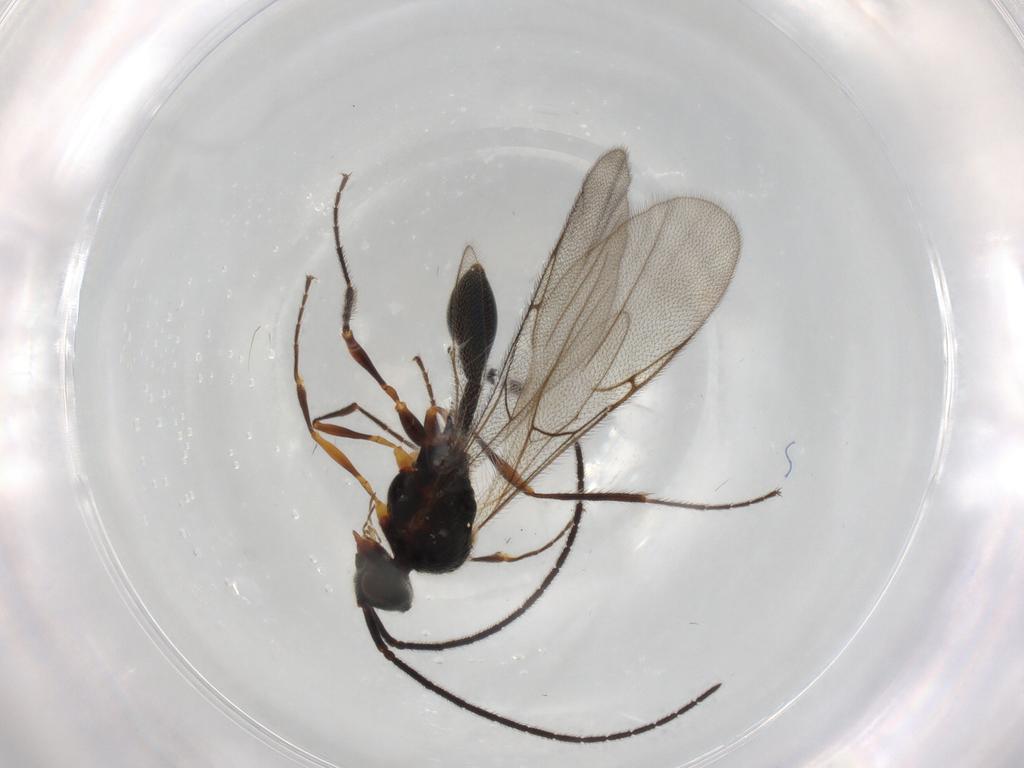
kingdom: Animalia
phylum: Arthropoda
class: Insecta
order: Hymenoptera
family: Diapriidae
